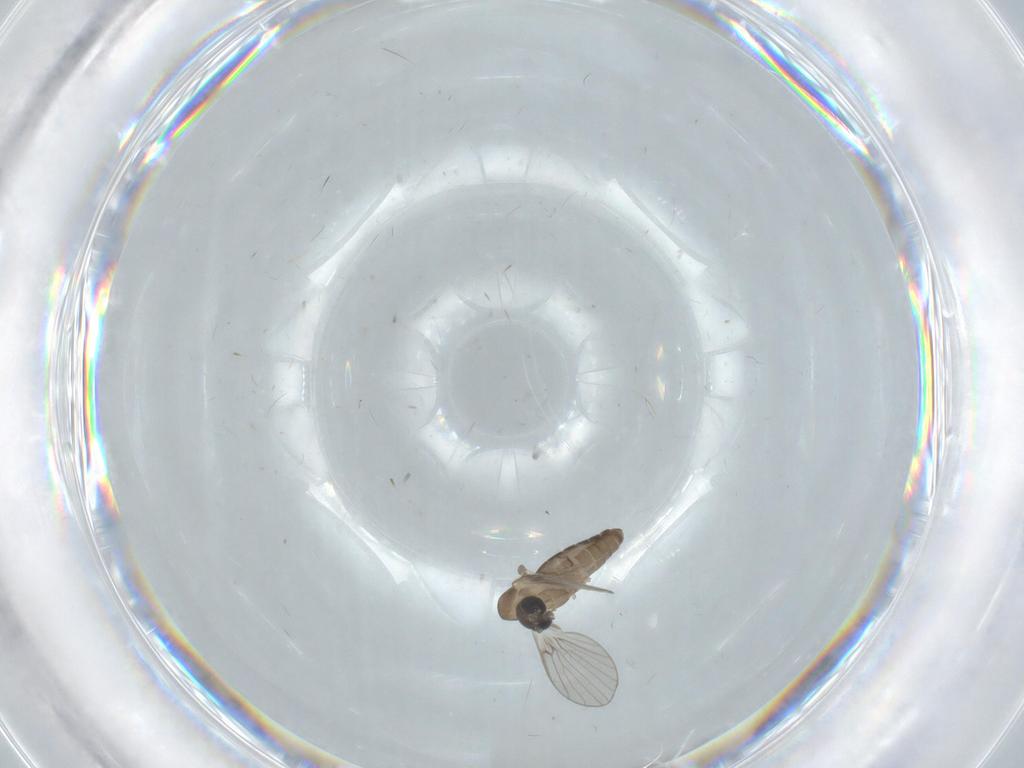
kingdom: Animalia
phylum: Arthropoda
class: Insecta
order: Diptera
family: Psychodidae
